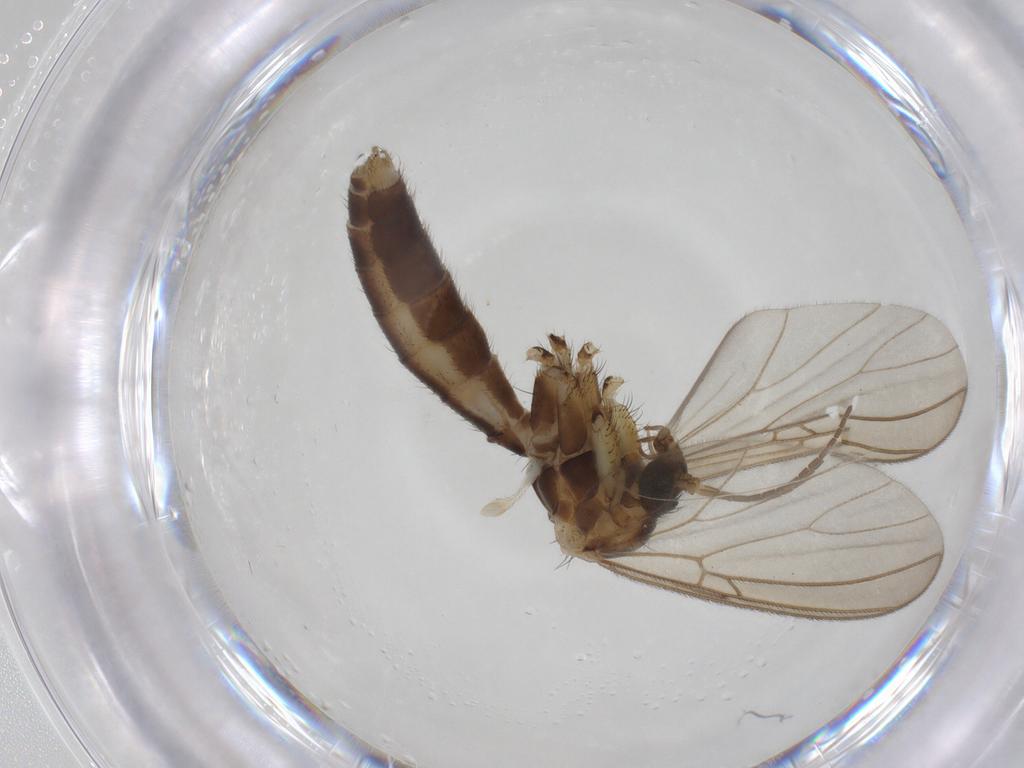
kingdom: Animalia
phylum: Arthropoda
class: Insecta
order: Diptera
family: Mycetophilidae
